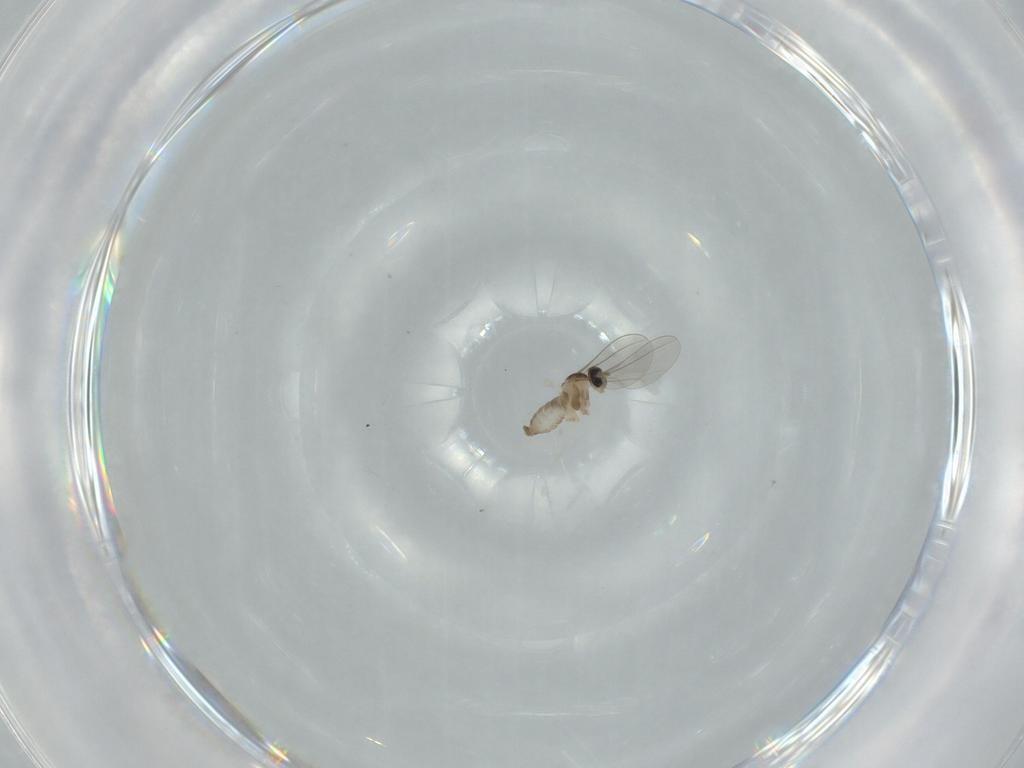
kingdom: Animalia
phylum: Arthropoda
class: Insecta
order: Diptera
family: Cecidomyiidae
